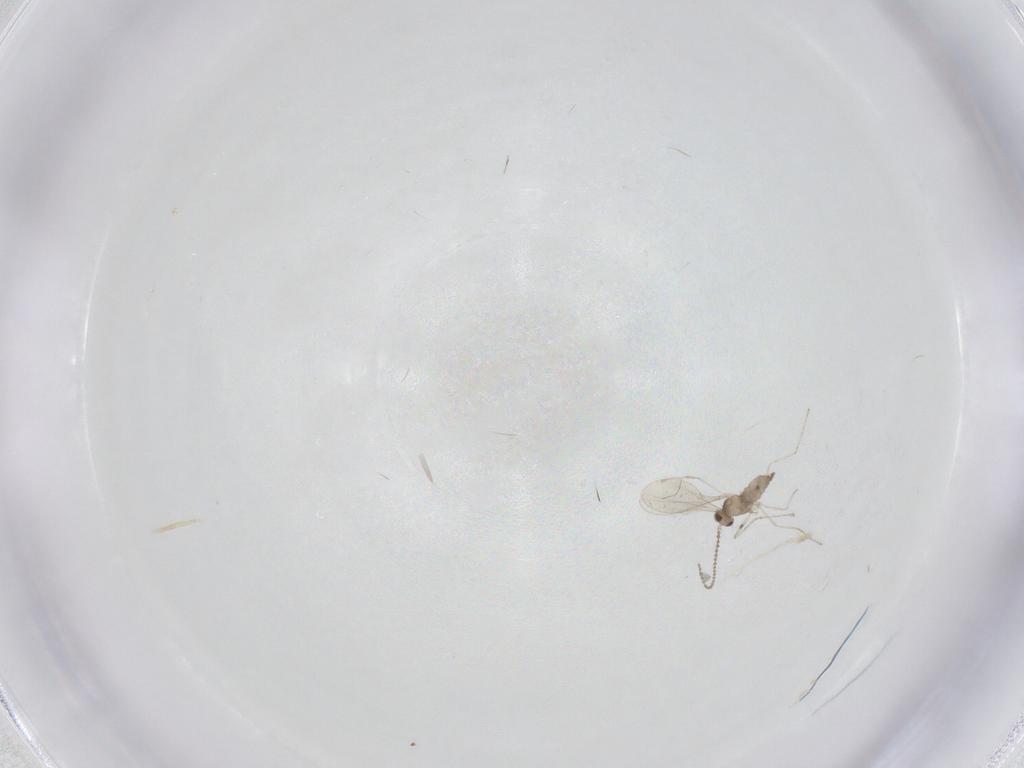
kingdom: Animalia
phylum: Arthropoda
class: Insecta
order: Diptera
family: Cecidomyiidae
